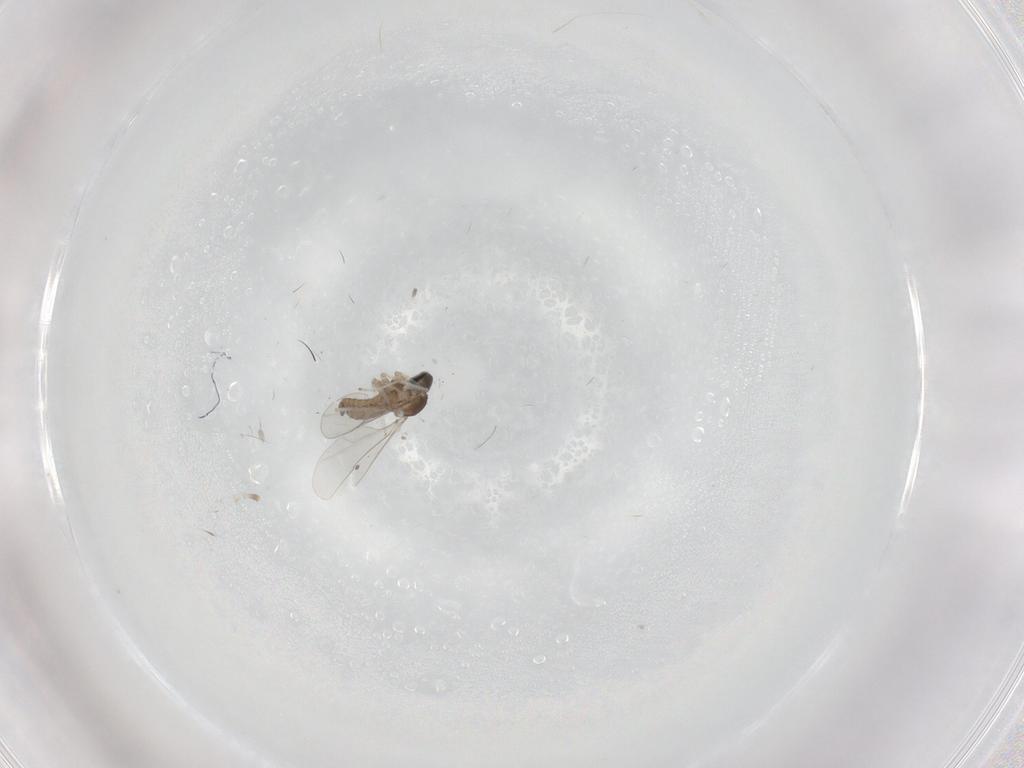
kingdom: Animalia
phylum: Arthropoda
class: Insecta
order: Diptera
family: Cecidomyiidae
